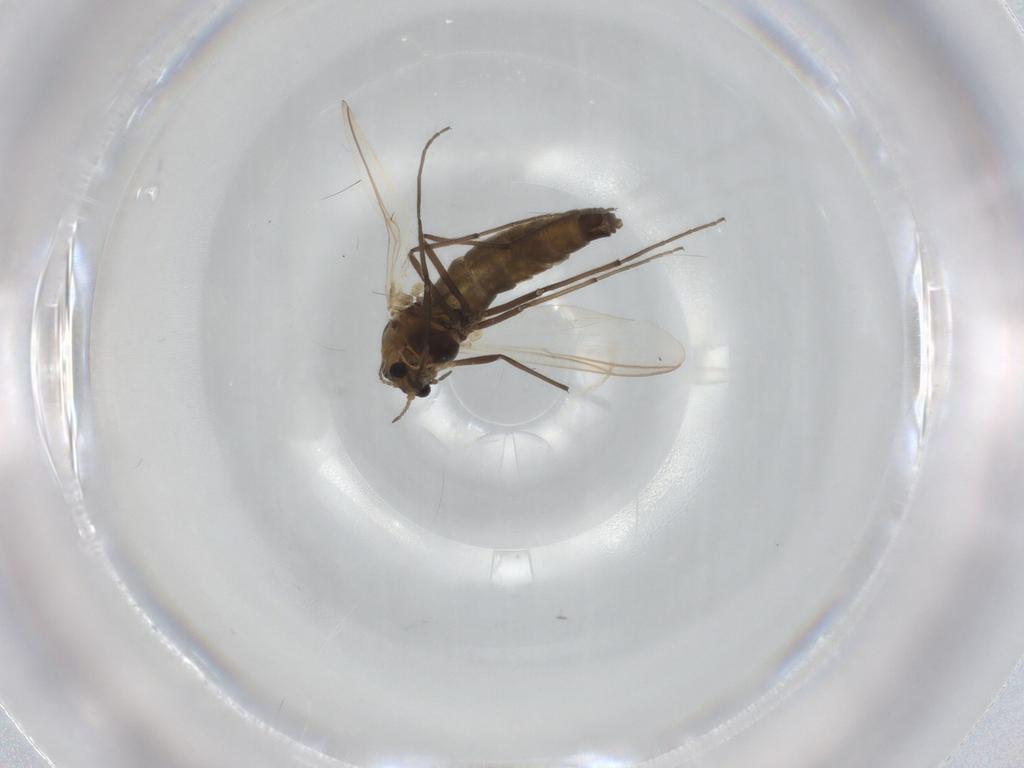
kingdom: Animalia
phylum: Arthropoda
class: Insecta
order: Diptera
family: Chironomidae
